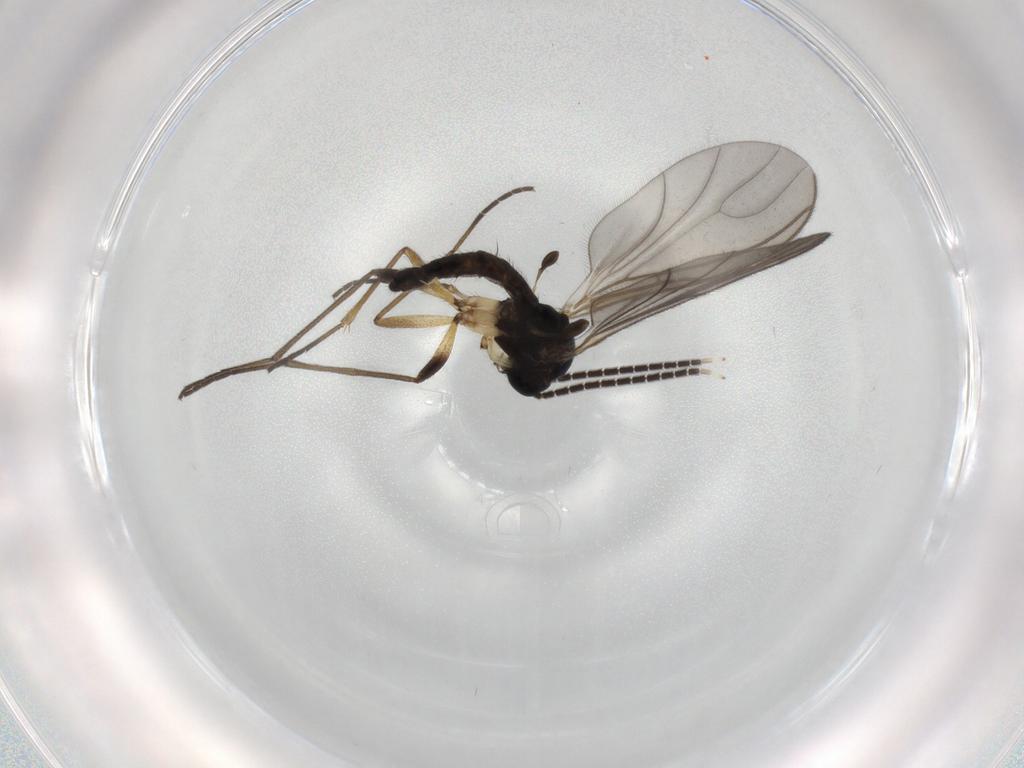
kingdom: Animalia
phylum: Arthropoda
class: Insecta
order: Diptera
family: Sciaridae
